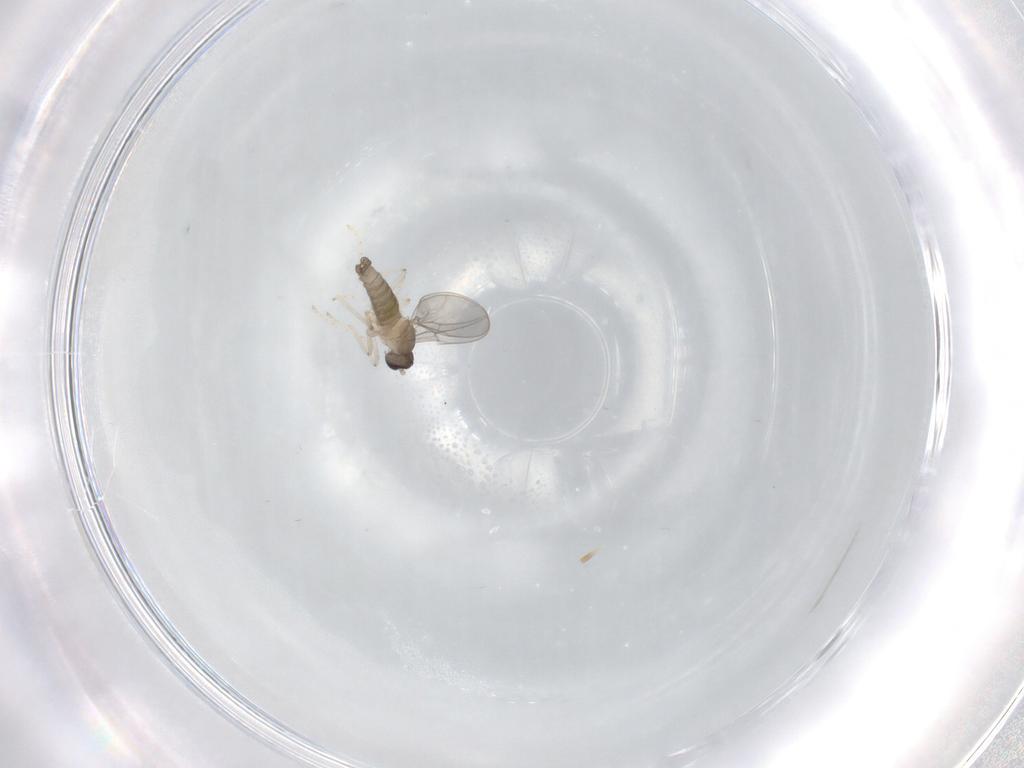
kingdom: Animalia
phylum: Arthropoda
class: Insecta
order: Diptera
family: Cecidomyiidae
